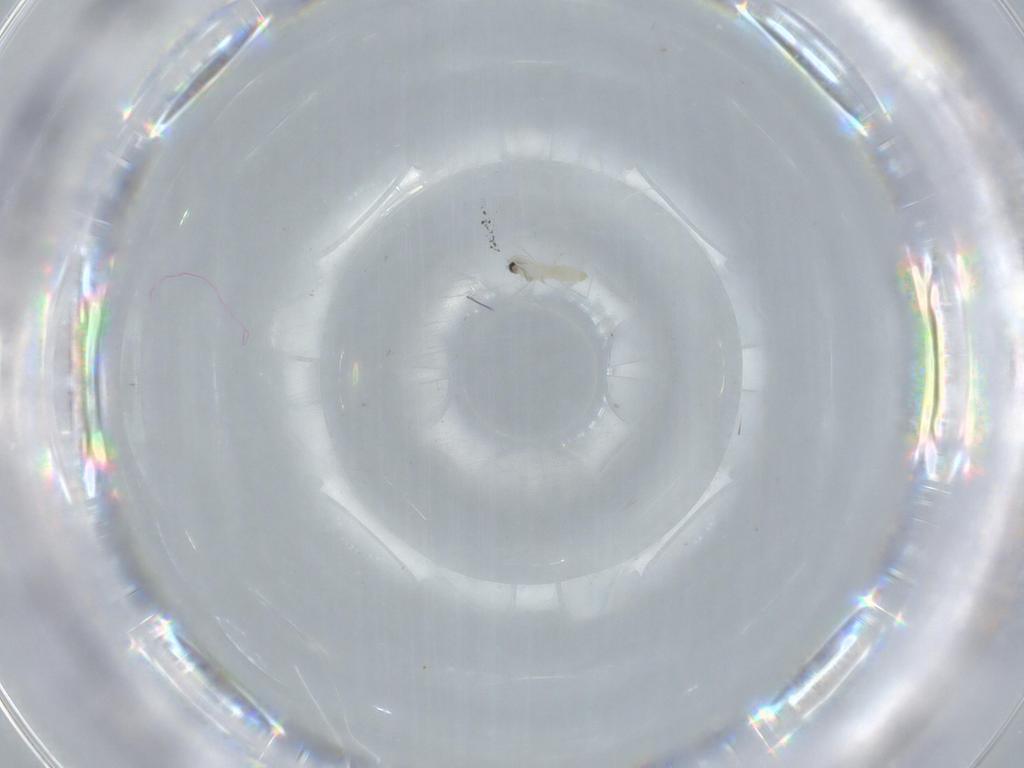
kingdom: Animalia
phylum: Arthropoda
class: Insecta
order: Diptera
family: Cecidomyiidae
